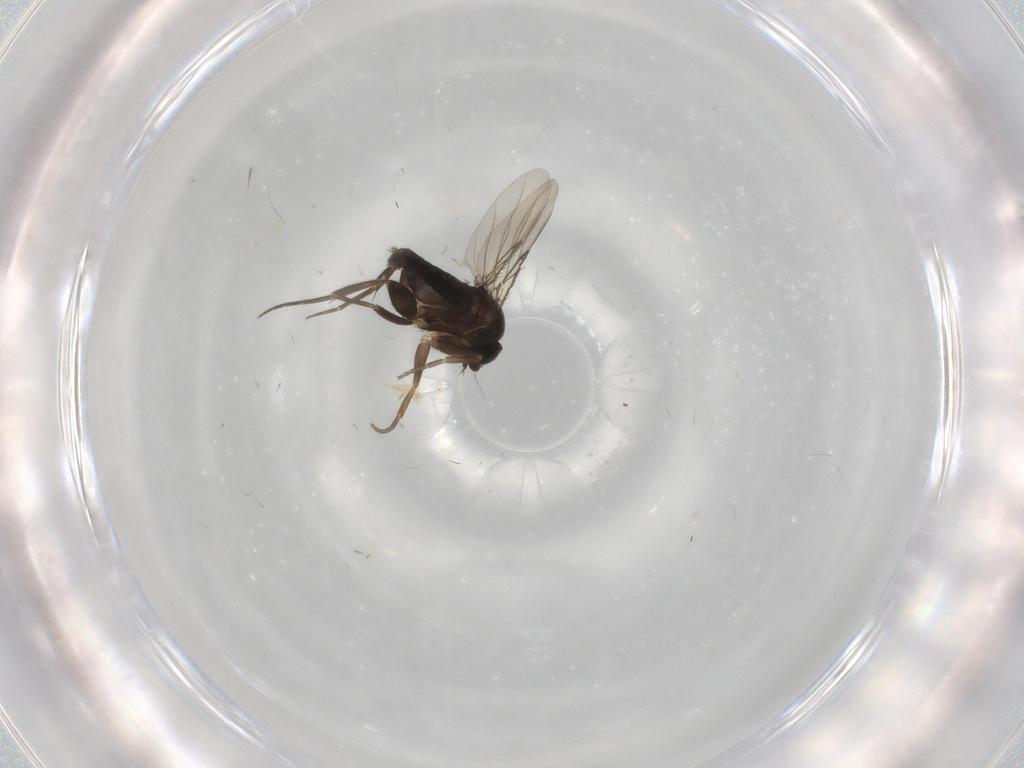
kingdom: Animalia
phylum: Arthropoda
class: Insecta
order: Diptera
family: Phoridae
